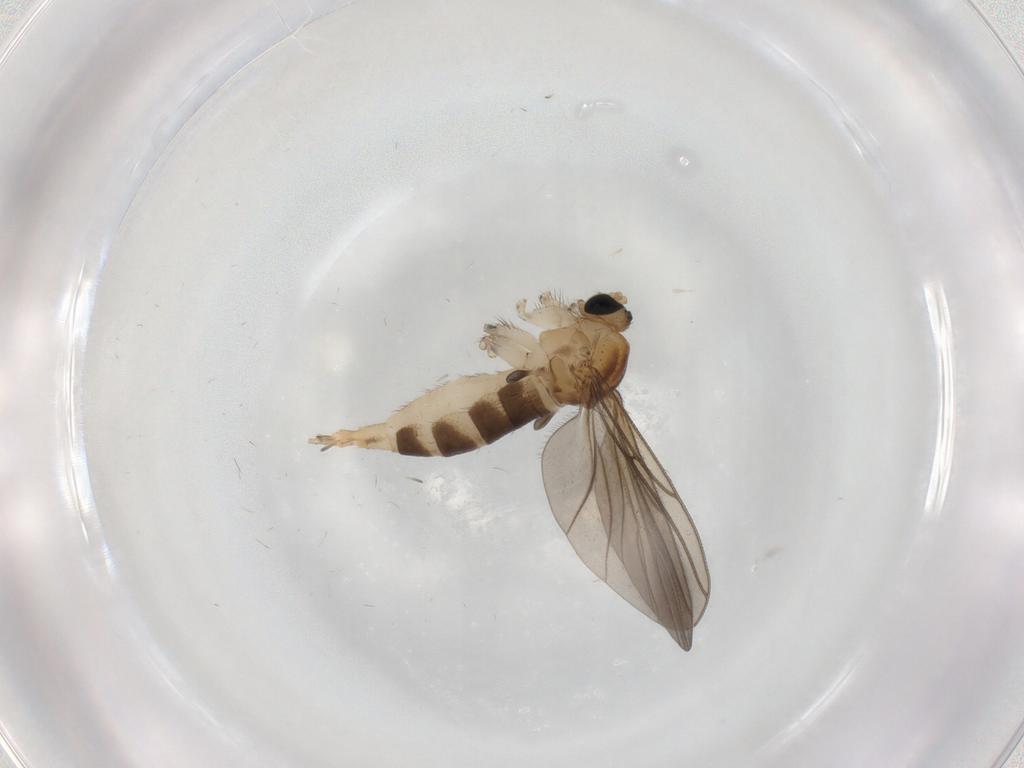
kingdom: Animalia
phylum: Arthropoda
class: Insecta
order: Diptera
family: Sciaridae
